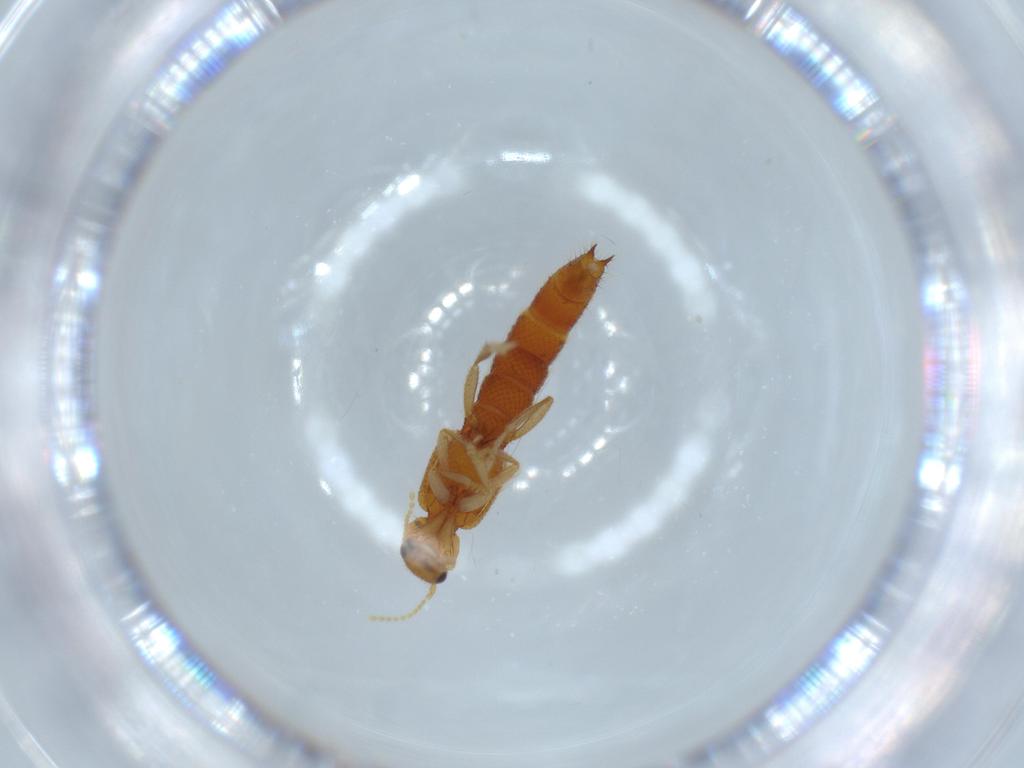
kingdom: Animalia
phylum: Arthropoda
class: Insecta
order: Coleoptera
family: Staphylinidae
